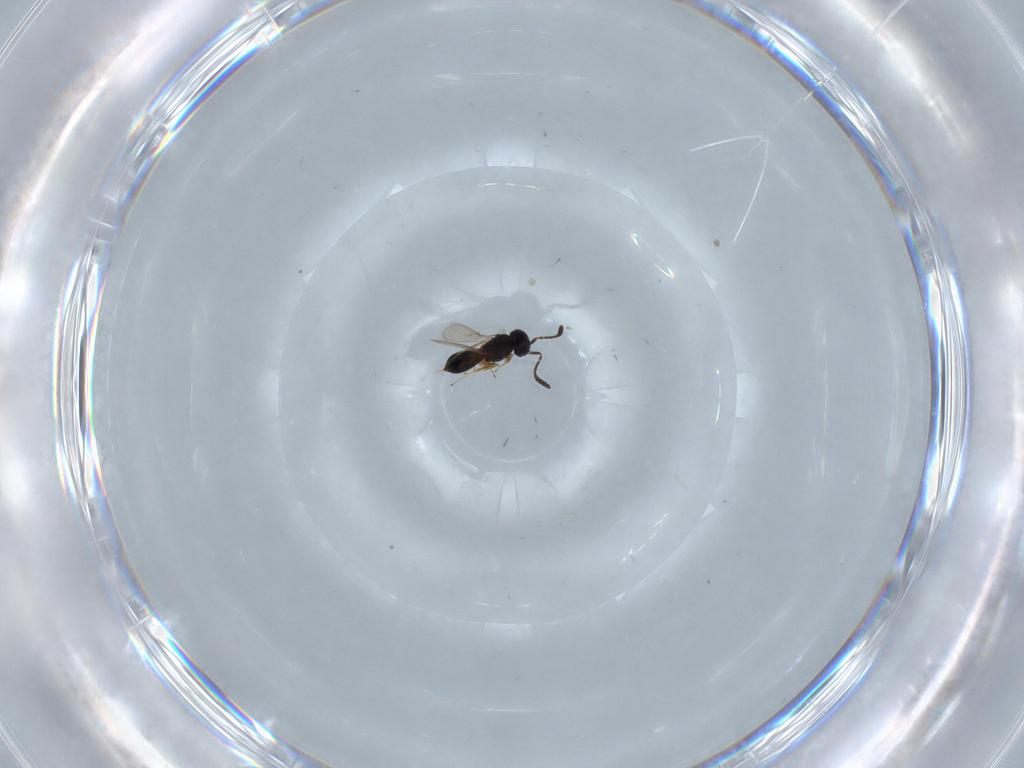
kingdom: Animalia
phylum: Arthropoda
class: Insecta
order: Hymenoptera
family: Scelionidae
